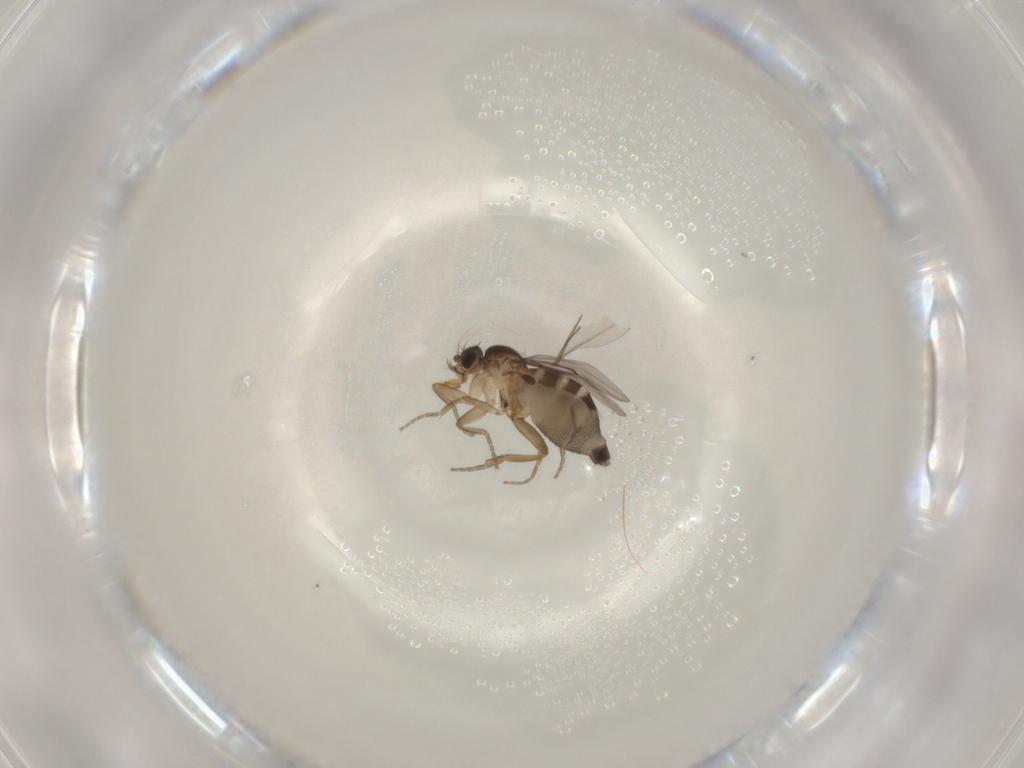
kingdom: Animalia
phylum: Arthropoda
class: Insecta
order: Diptera
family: Phoridae
